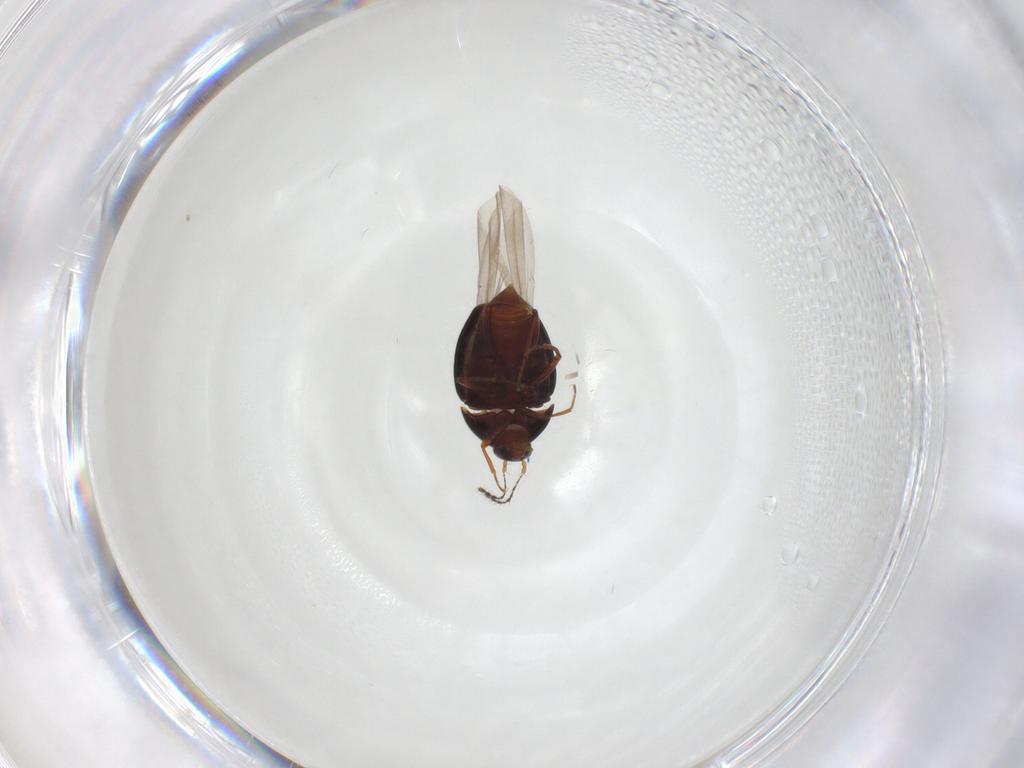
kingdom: Animalia
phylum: Arthropoda
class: Insecta
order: Coleoptera
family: Staphylinidae
